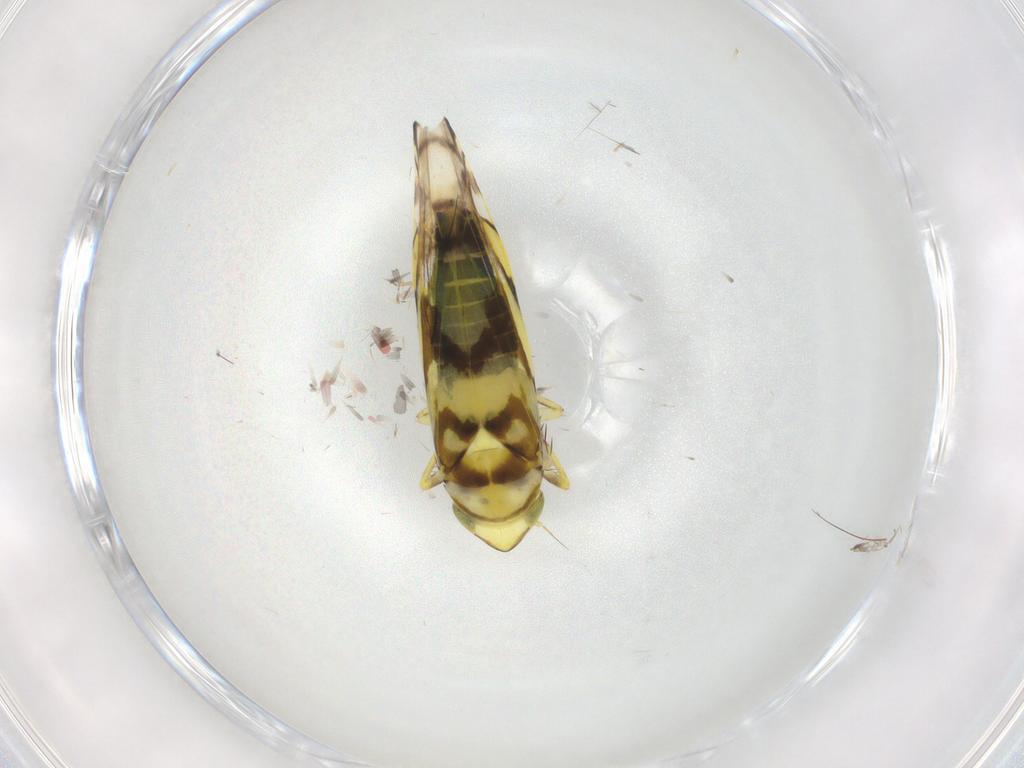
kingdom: Animalia
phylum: Arthropoda
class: Insecta
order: Hemiptera
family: Cicadellidae
